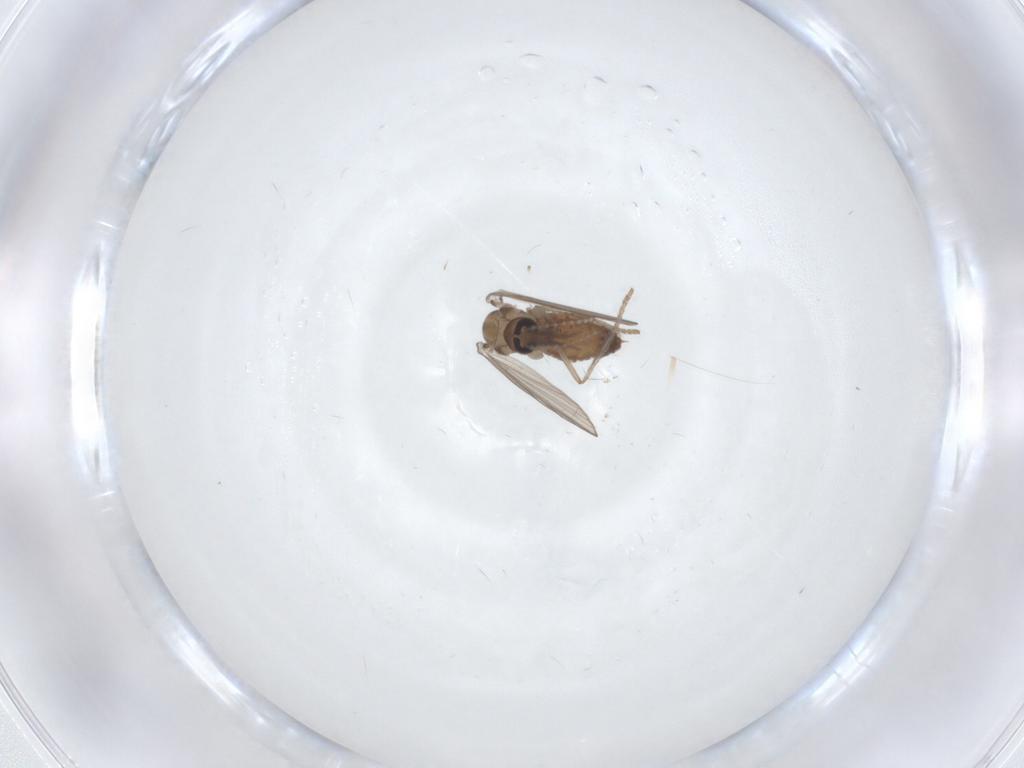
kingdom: Animalia
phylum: Arthropoda
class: Insecta
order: Diptera
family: Psychodidae
